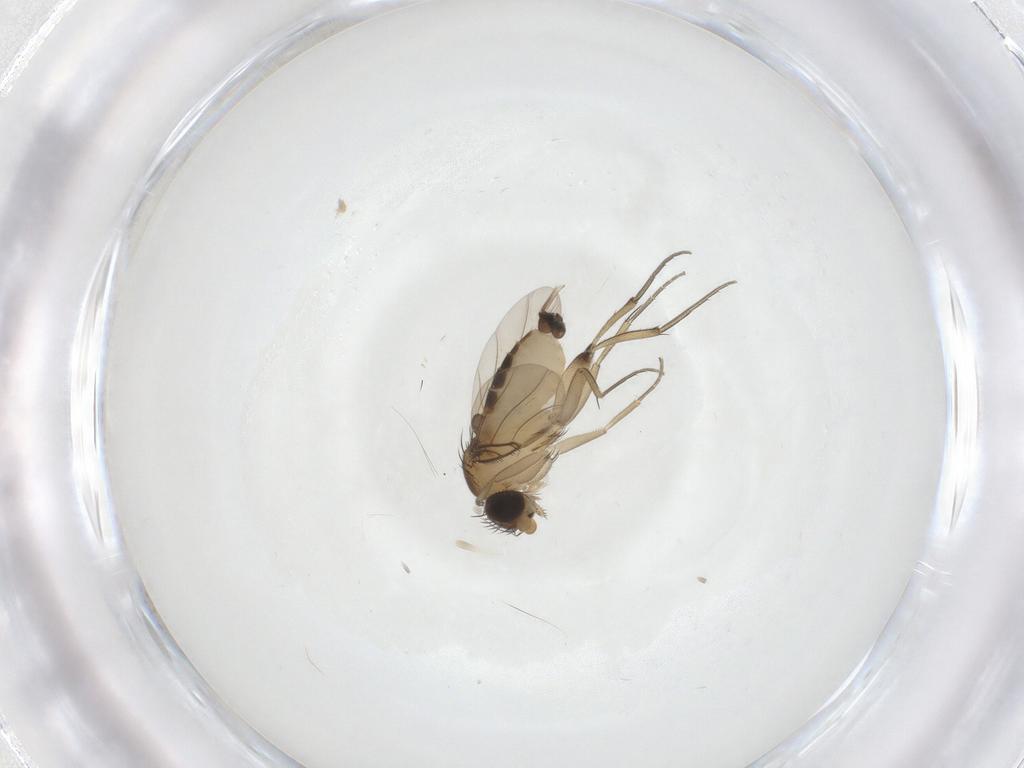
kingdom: Animalia
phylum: Arthropoda
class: Insecta
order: Diptera
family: Phoridae
